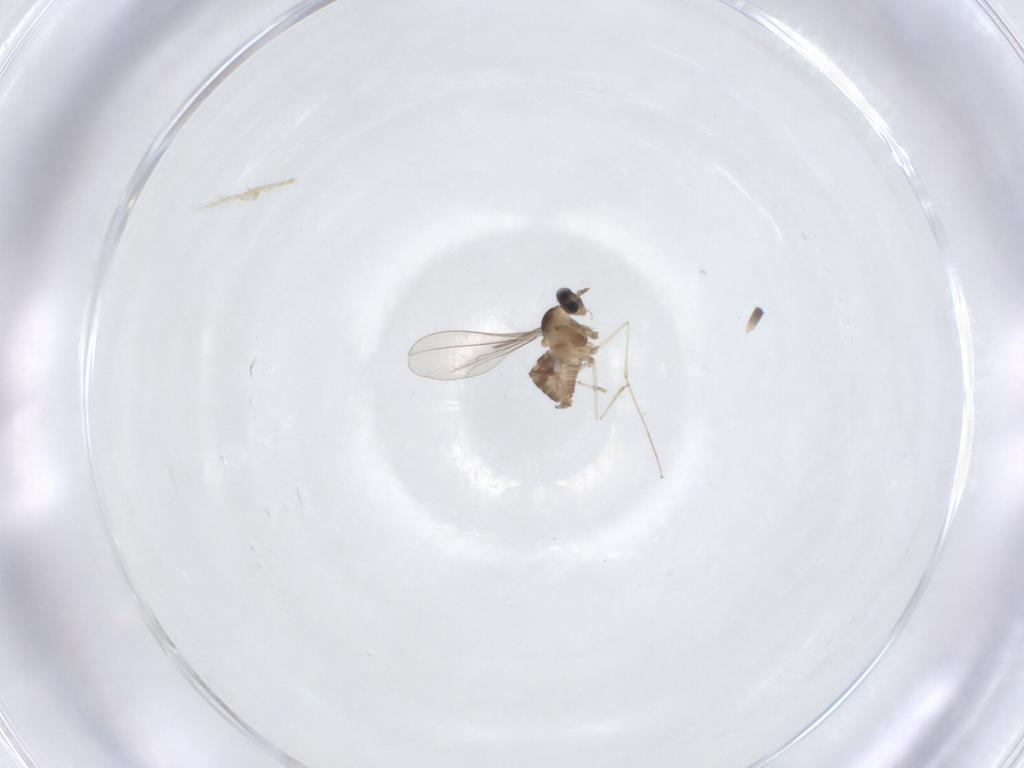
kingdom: Animalia
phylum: Arthropoda
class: Insecta
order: Diptera
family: Cecidomyiidae
